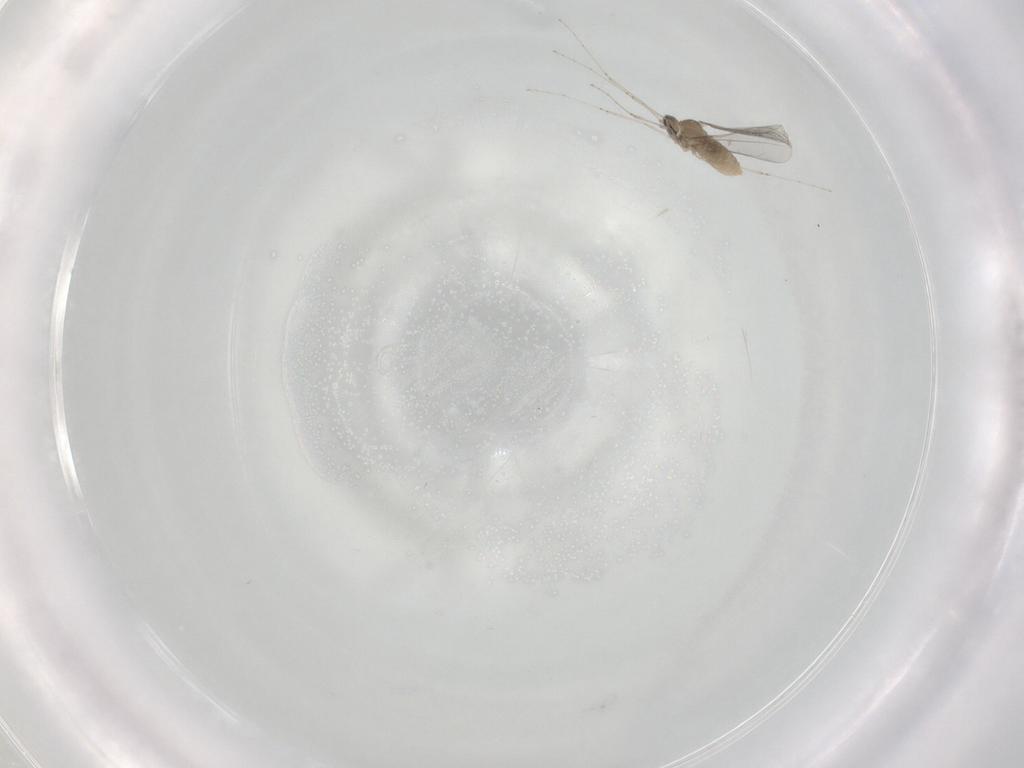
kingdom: Animalia
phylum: Arthropoda
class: Insecta
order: Diptera
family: Cecidomyiidae
